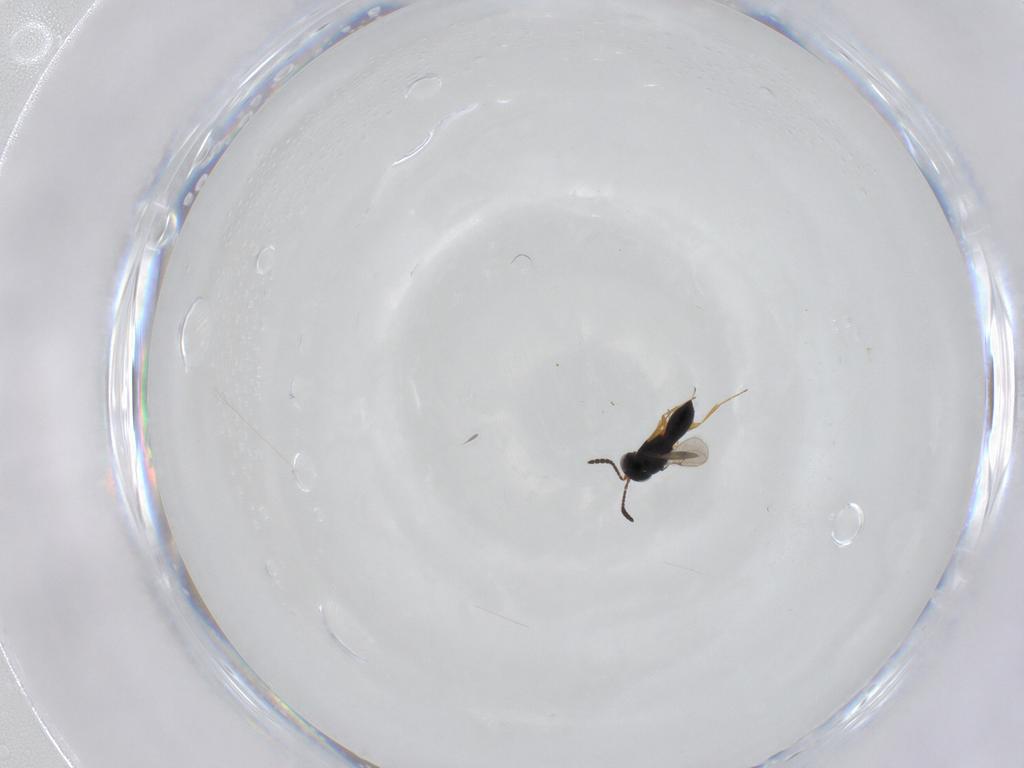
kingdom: Animalia
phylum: Arthropoda
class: Insecta
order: Hymenoptera
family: Scelionidae
